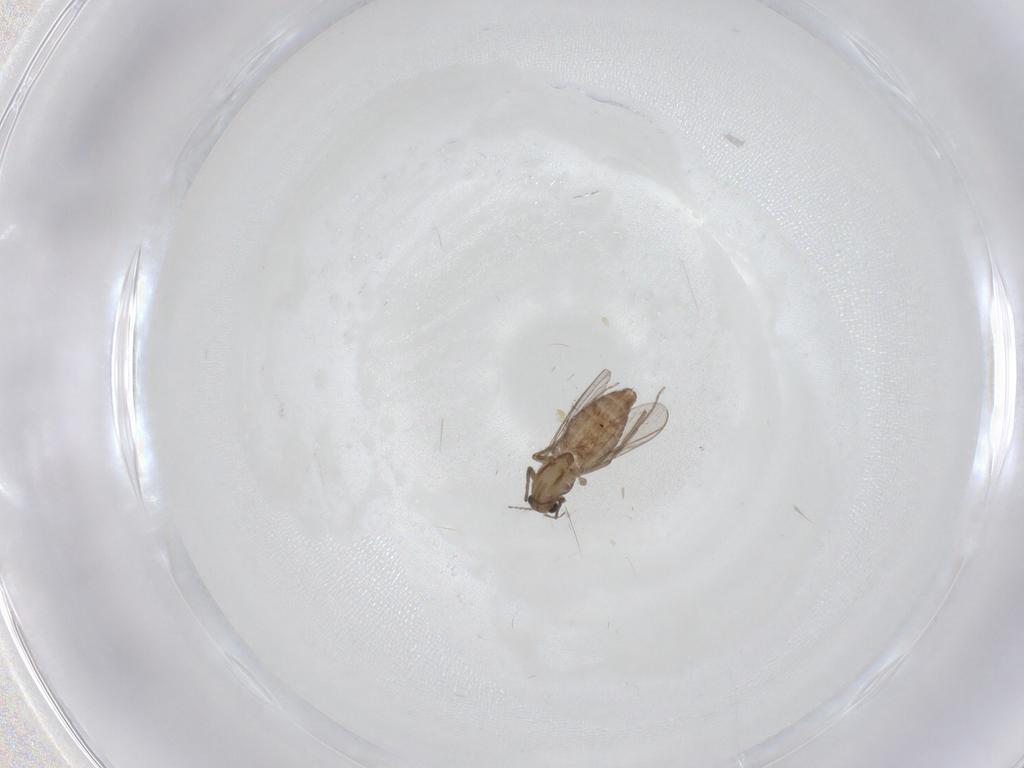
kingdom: Animalia
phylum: Arthropoda
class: Insecta
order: Diptera
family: Chironomidae
